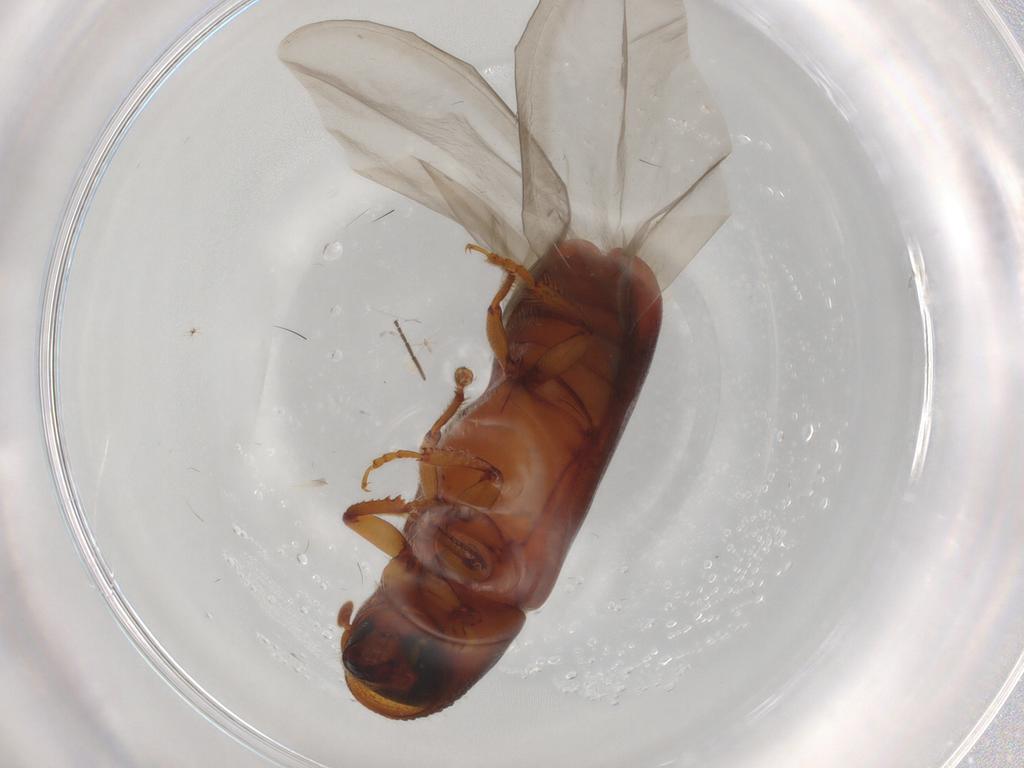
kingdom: Animalia
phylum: Arthropoda
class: Insecta
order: Coleoptera
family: Curculionidae
